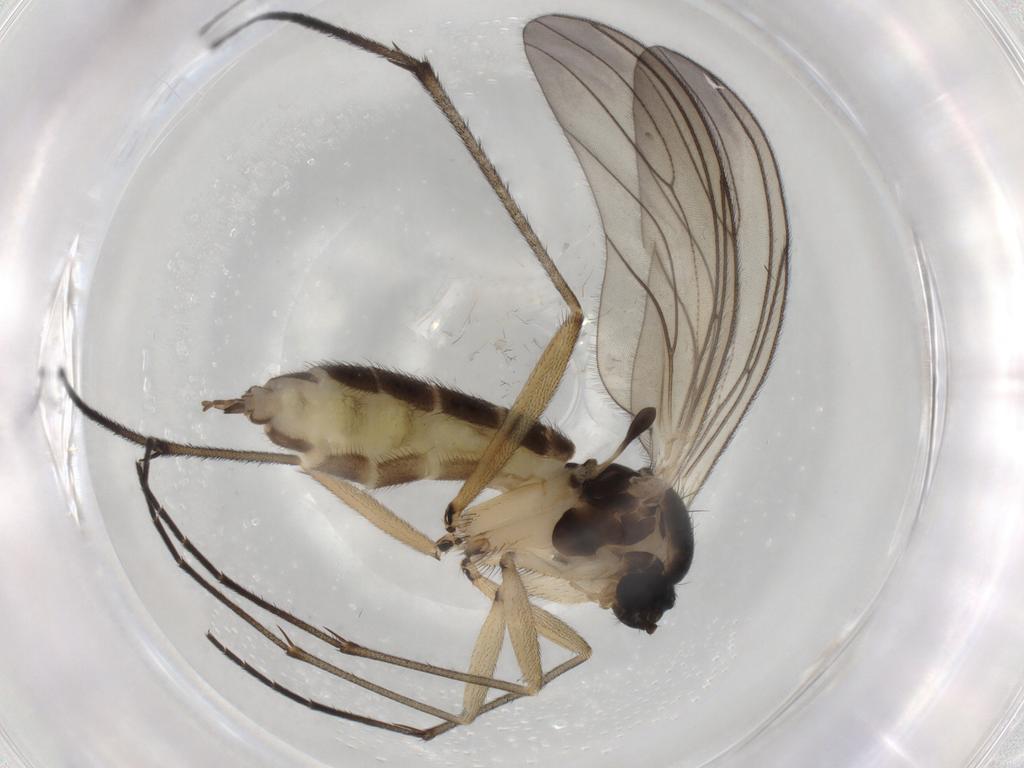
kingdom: Animalia
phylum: Arthropoda
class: Insecta
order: Diptera
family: Sciaridae
